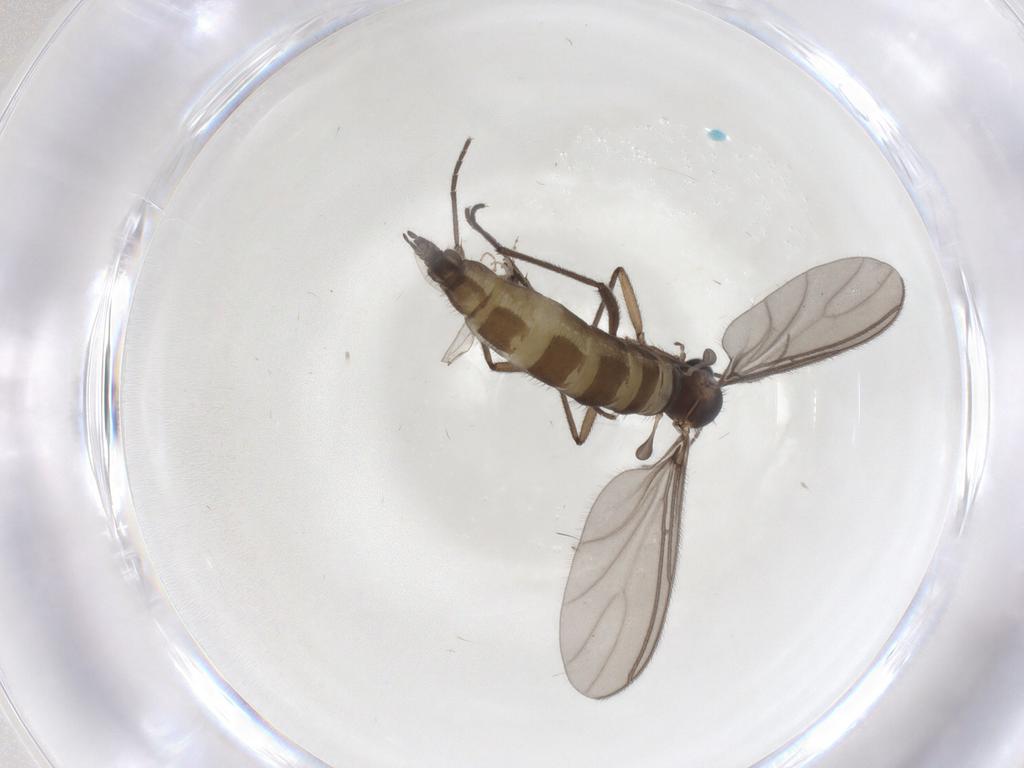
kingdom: Animalia
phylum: Arthropoda
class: Insecta
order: Diptera
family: Cecidomyiidae
